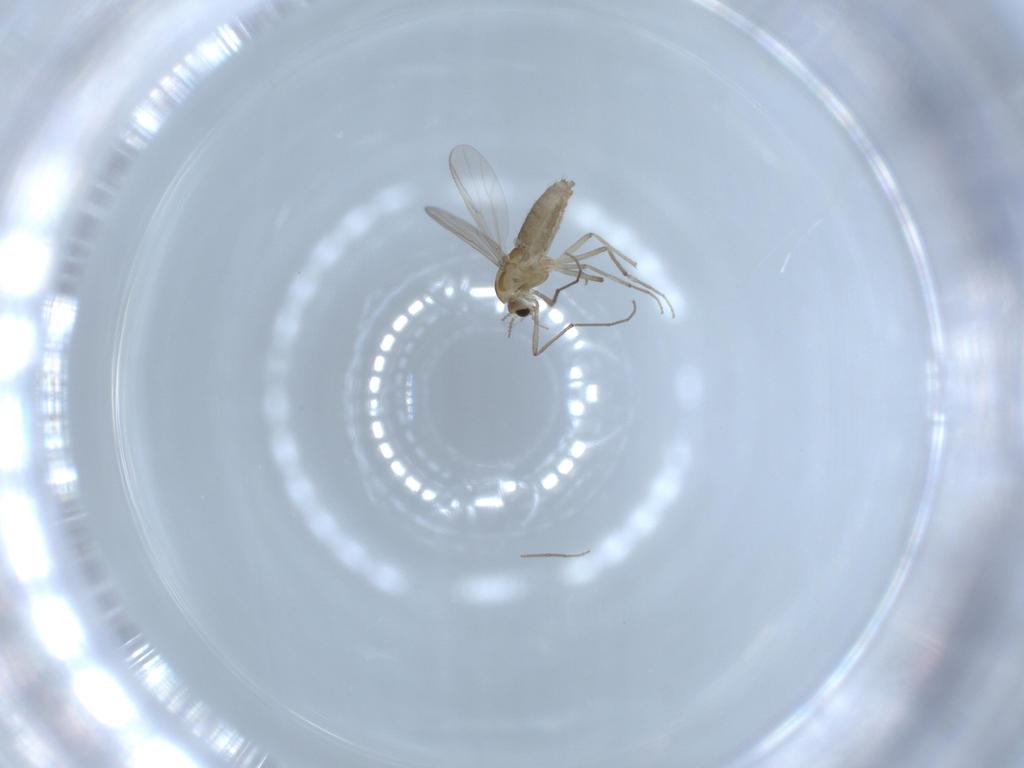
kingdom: Animalia
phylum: Arthropoda
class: Insecta
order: Diptera
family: Chironomidae
